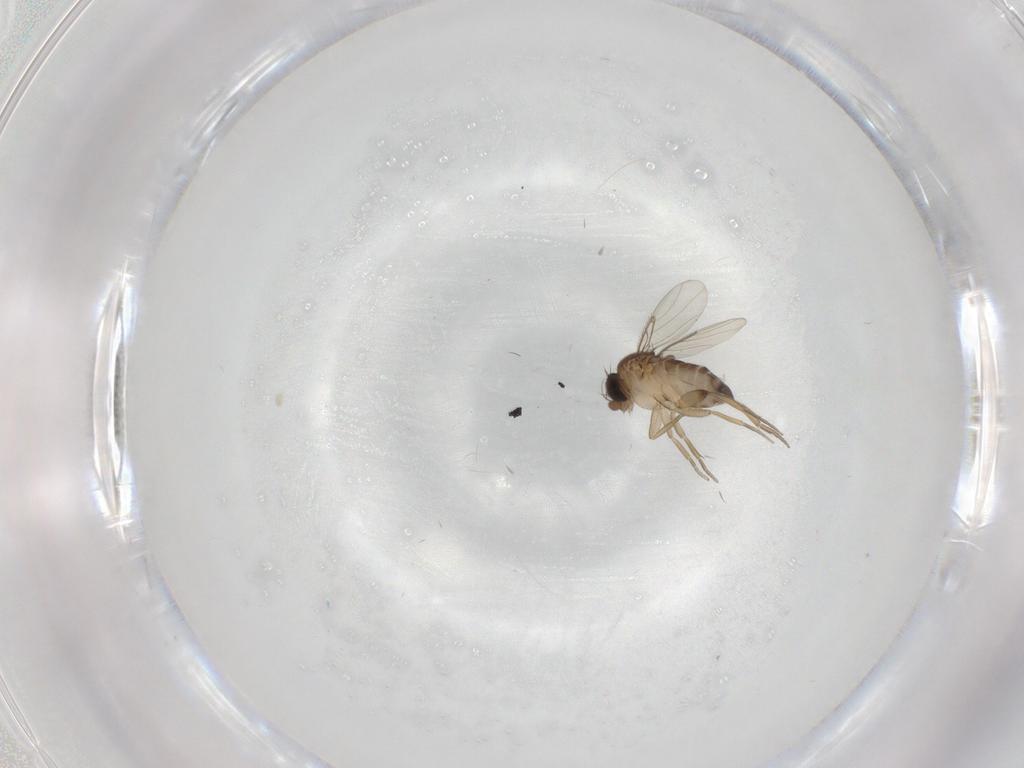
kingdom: Animalia
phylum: Arthropoda
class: Insecta
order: Diptera
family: Phoridae
